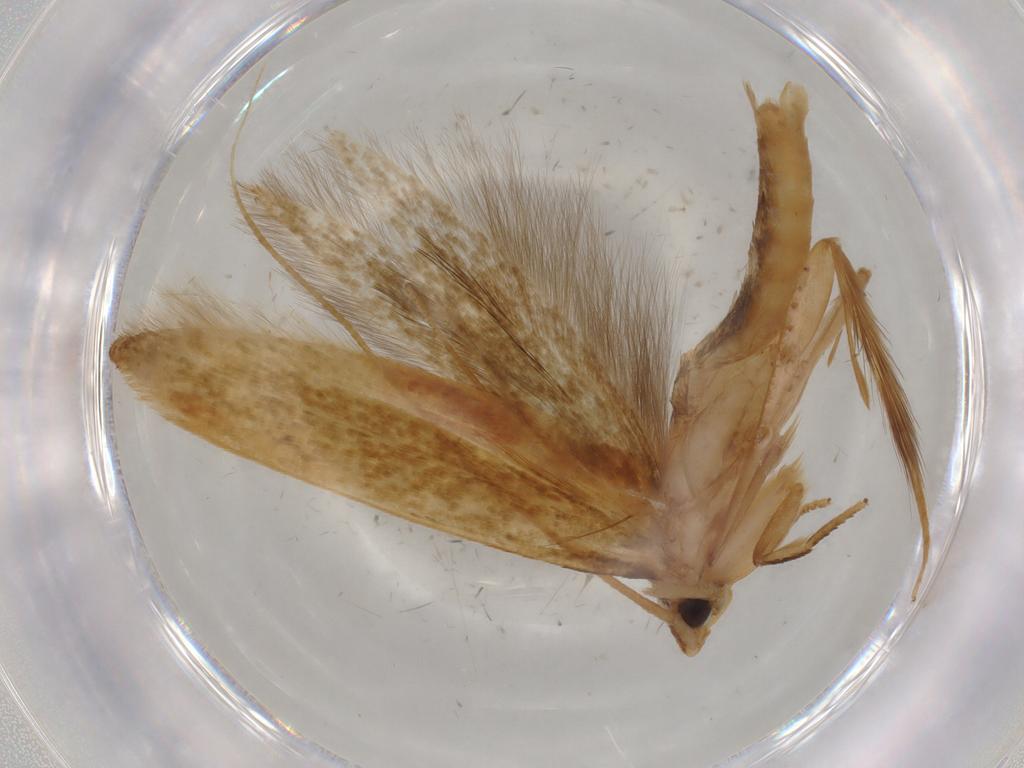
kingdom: Animalia
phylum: Arthropoda
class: Insecta
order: Lepidoptera
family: Tineidae
